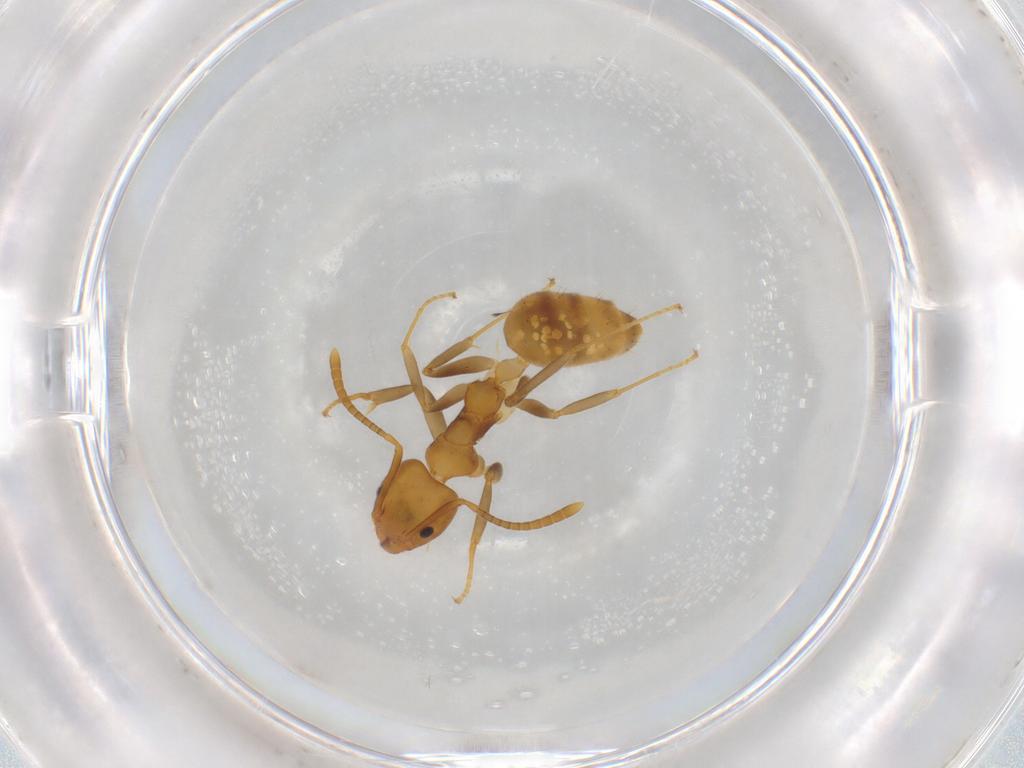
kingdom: Animalia
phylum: Arthropoda
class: Insecta
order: Hymenoptera
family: Formicidae
